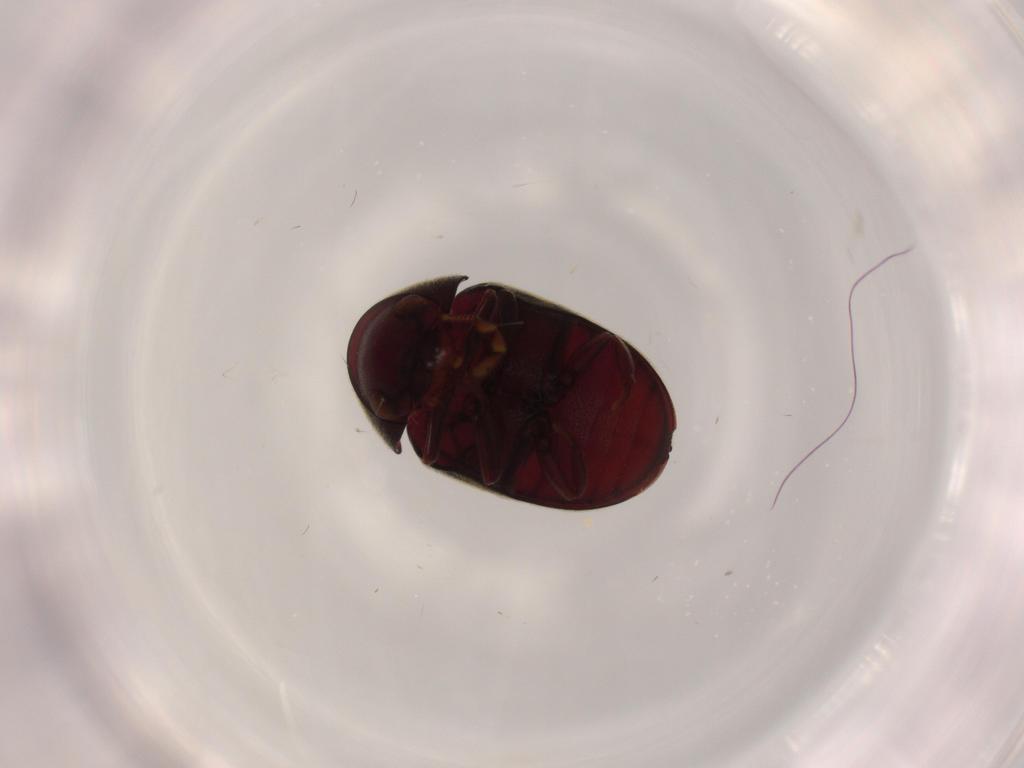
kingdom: Animalia
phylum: Arthropoda
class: Insecta
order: Coleoptera
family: Ptinidae
